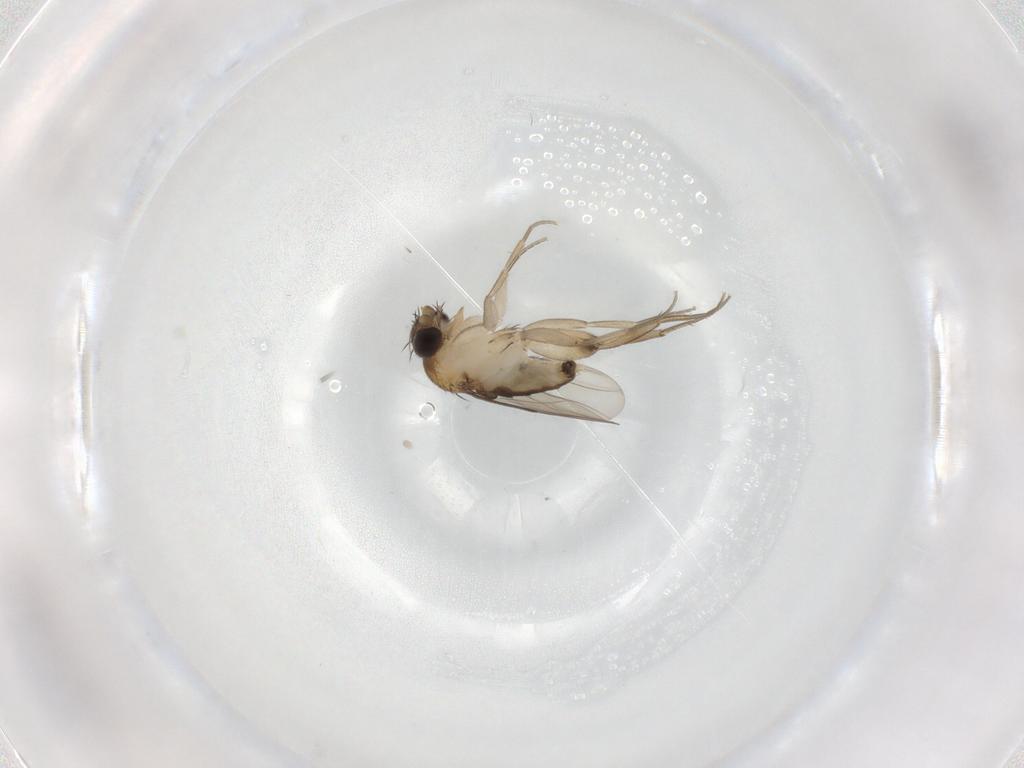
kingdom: Animalia
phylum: Arthropoda
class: Insecta
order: Diptera
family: Phoridae
